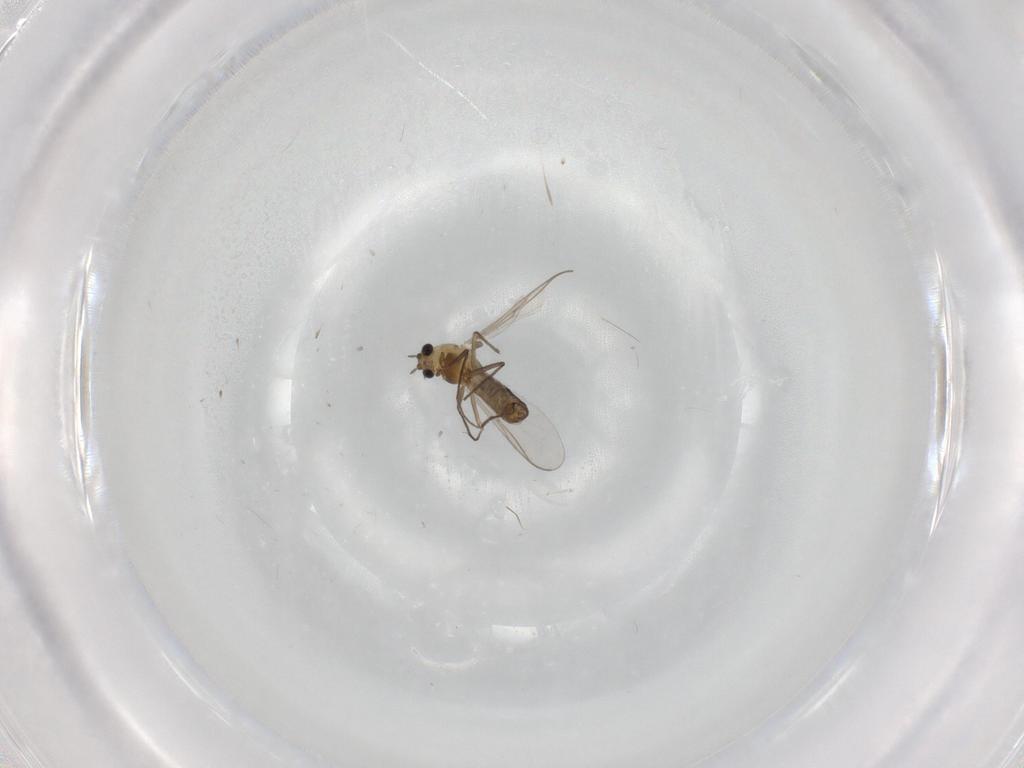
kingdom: Animalia
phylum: Arthropoda
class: Insecta
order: Diptera
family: Chironomidae
